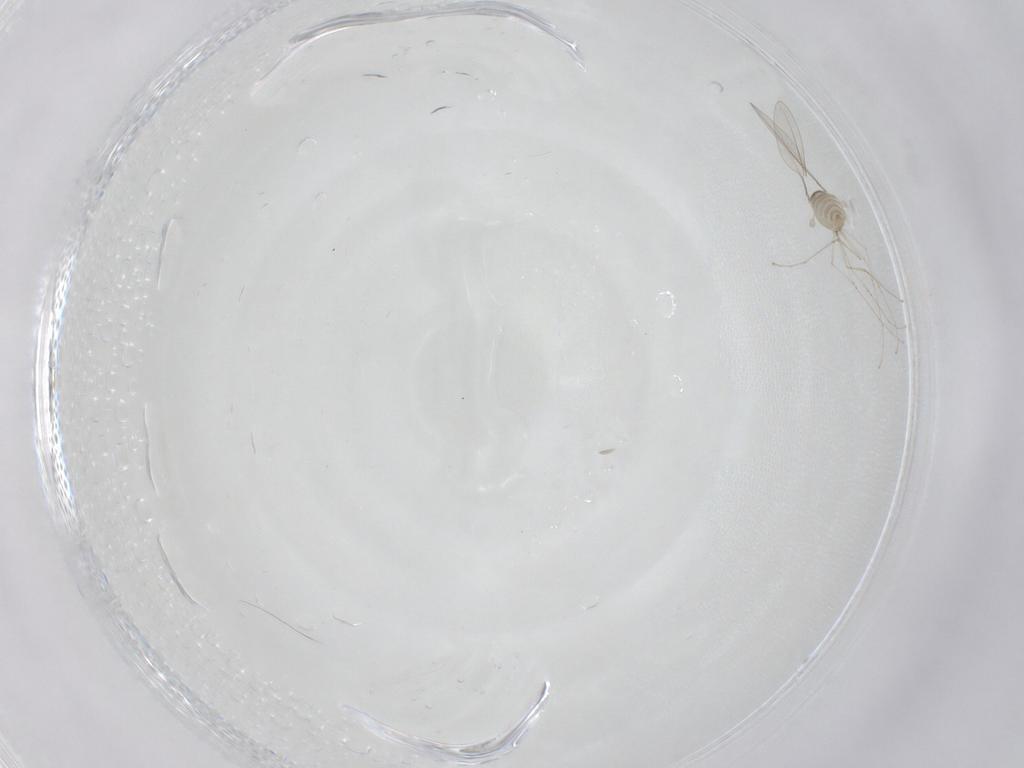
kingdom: Animalia
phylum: Arthropoda
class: Insecta
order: Diptera
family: Cecidomyiidae
